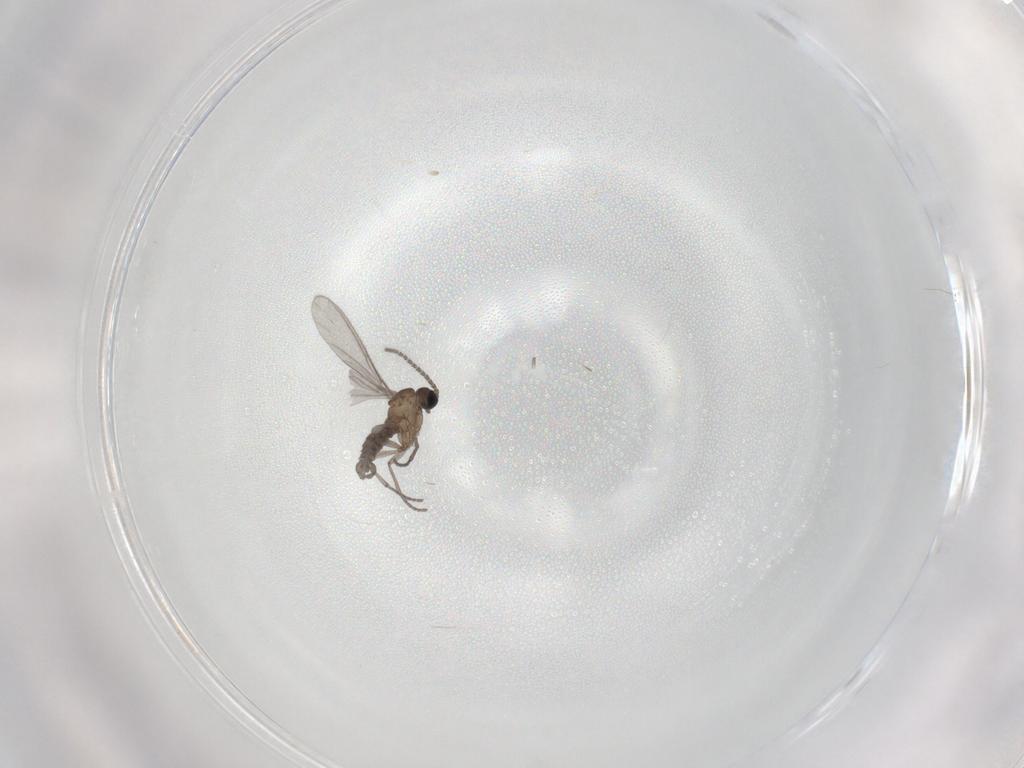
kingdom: Animalia
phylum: Arthropoda
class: Insecta
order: Diptera
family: Sciaridae
